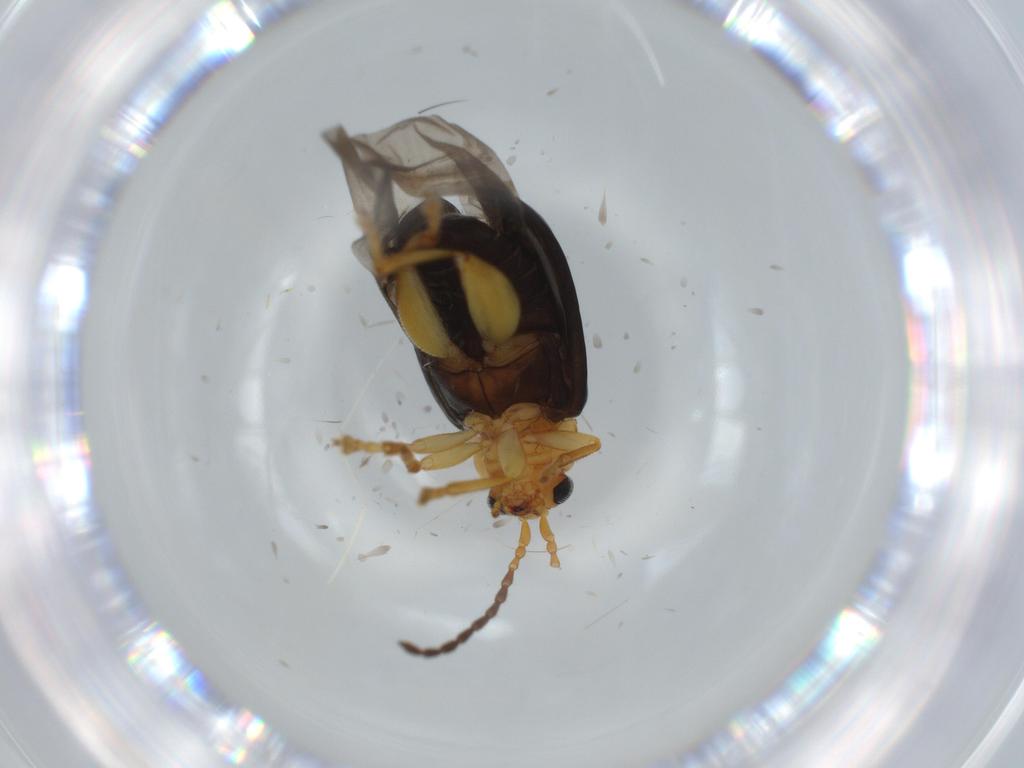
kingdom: Animalia
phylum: Arthropoda
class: Insecta
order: Coleoptera
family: Chrysomelidae
